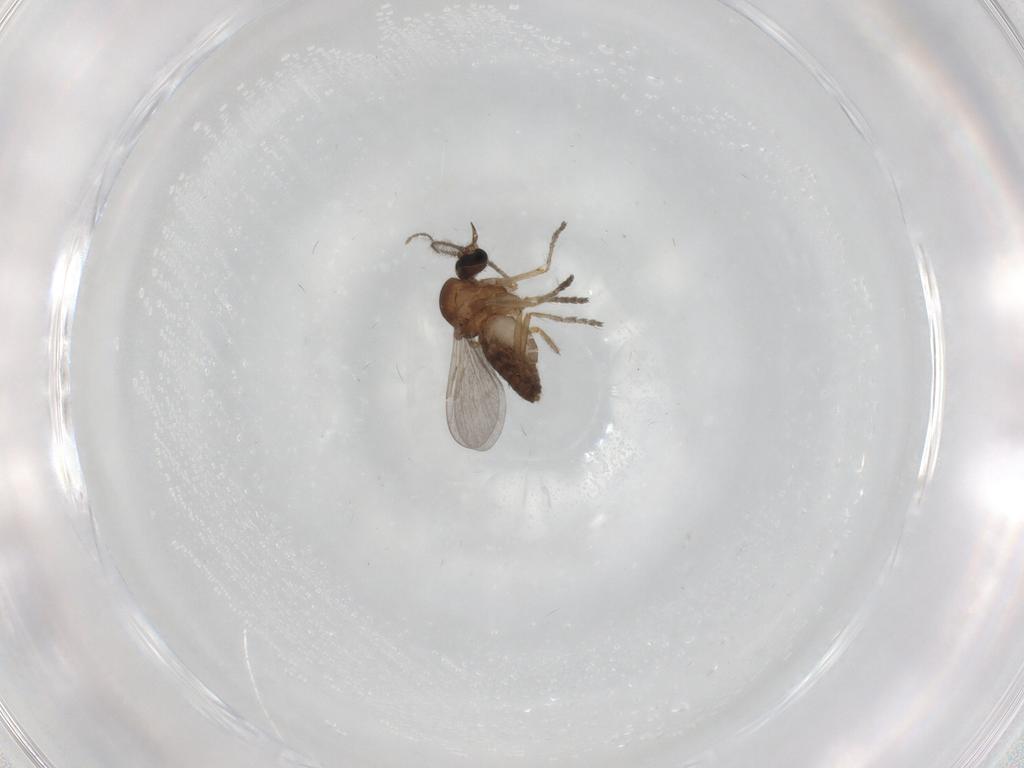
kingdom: Animalia
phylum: Arthropoda
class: Insecta
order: Diptera
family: Ceratopogonidae
